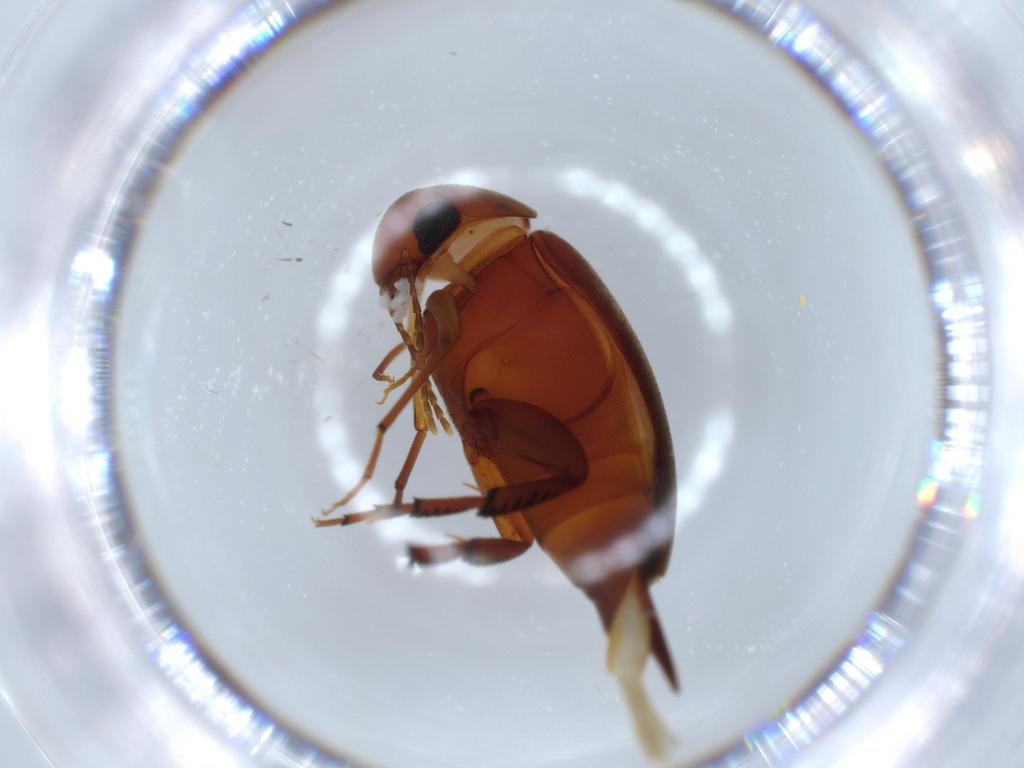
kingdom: Animalia
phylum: Arthropoda
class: Insecta
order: Coleoptera
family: Mordellidae
